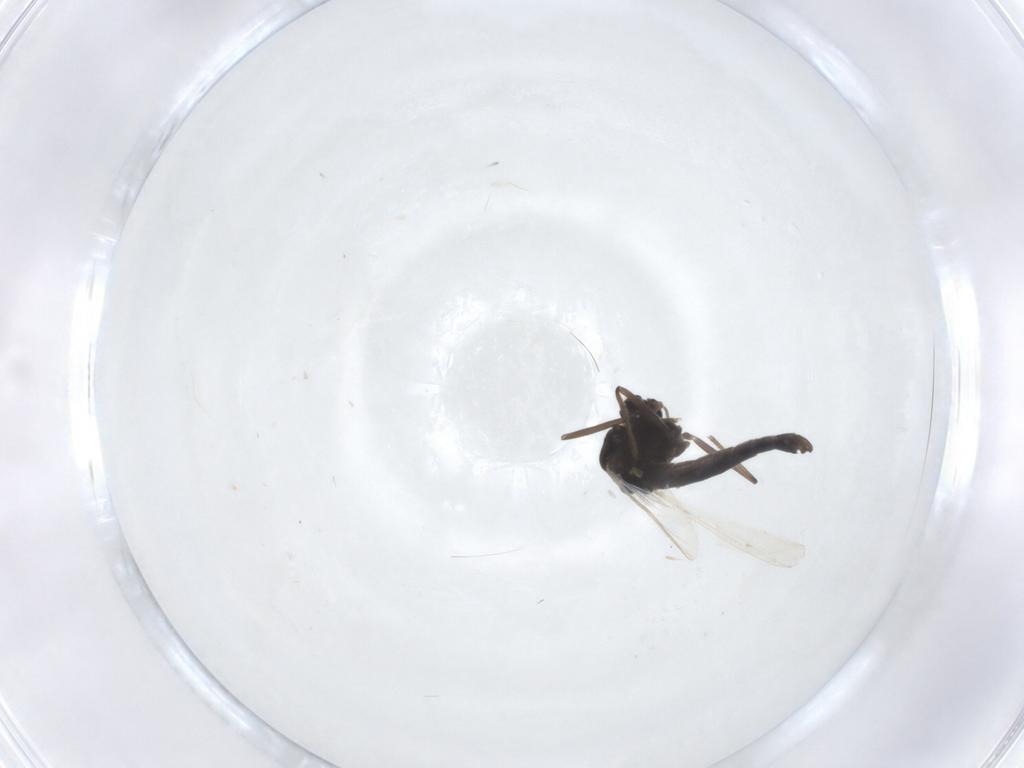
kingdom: Animalia
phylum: Arthropoda
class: Insecta
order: Diptera
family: Chironomidae
